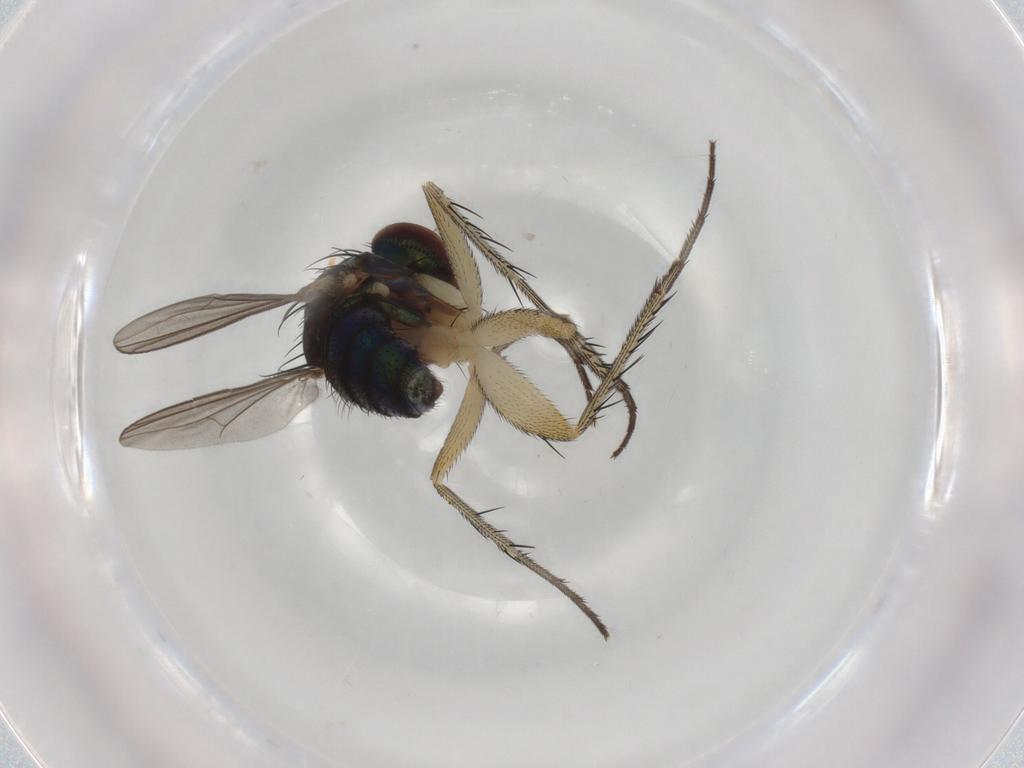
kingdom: Animalia
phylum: Arthropoda
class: Insecta
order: Diptera
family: Dolichopodidae
